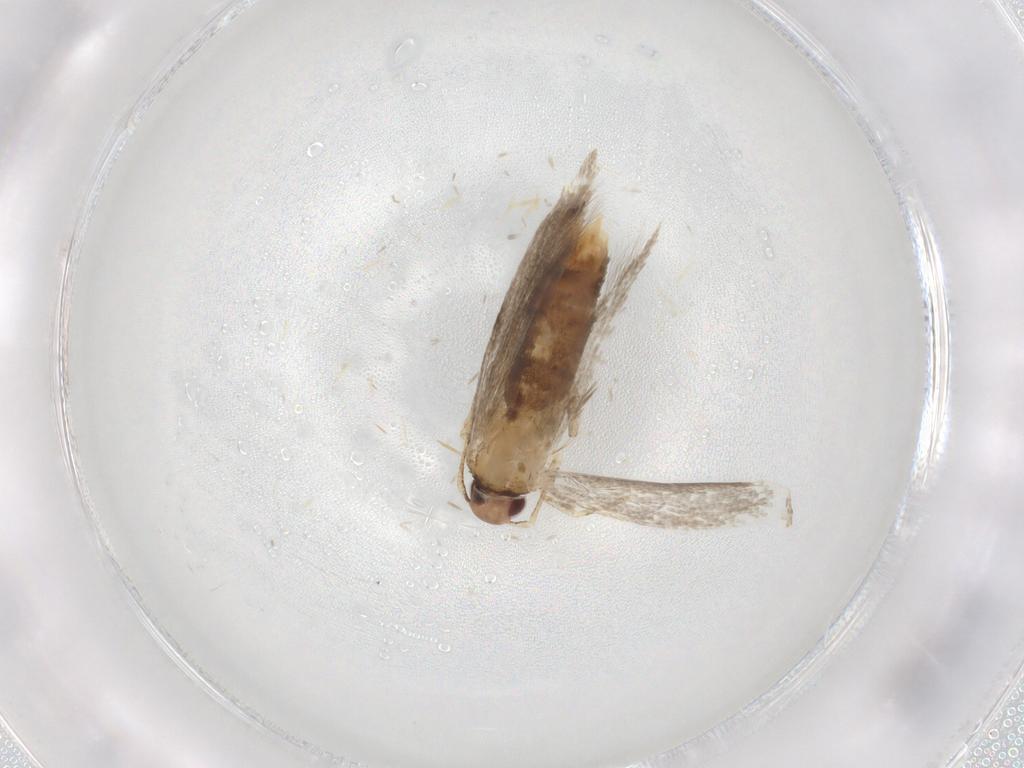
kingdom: Animalia
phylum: Arthropoda
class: Insecta
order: Lepidoptera
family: Cosmopterigidae
